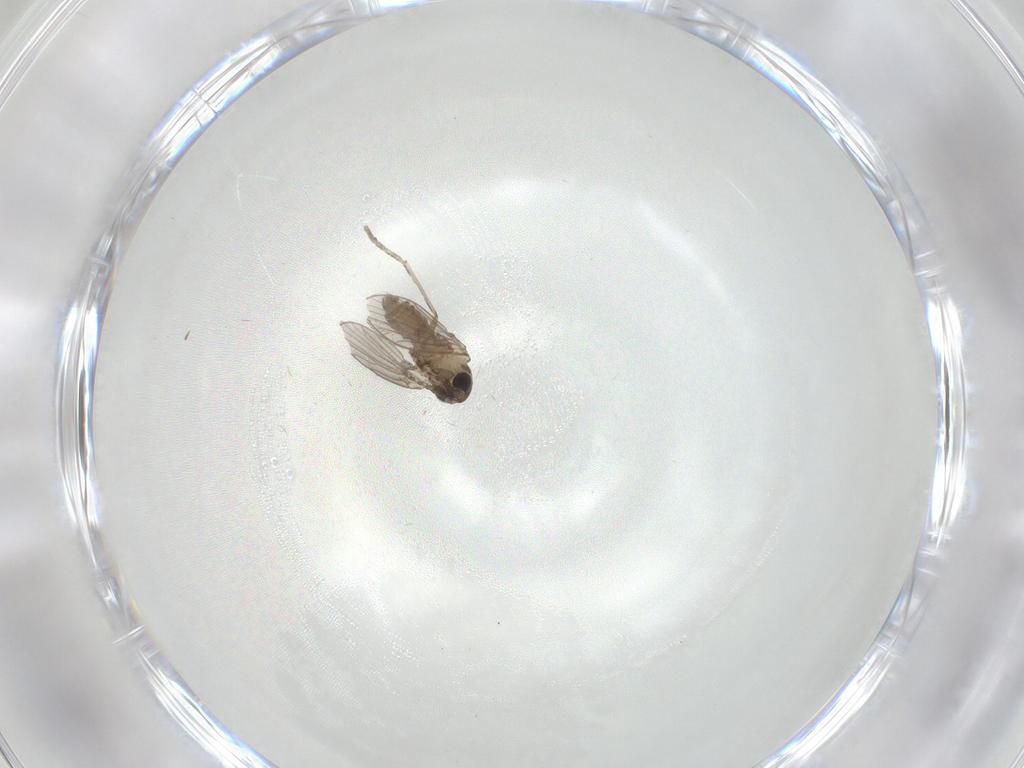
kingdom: Animalia
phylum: Arthropoda
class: Insecta
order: Diptera
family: Psychodidae
